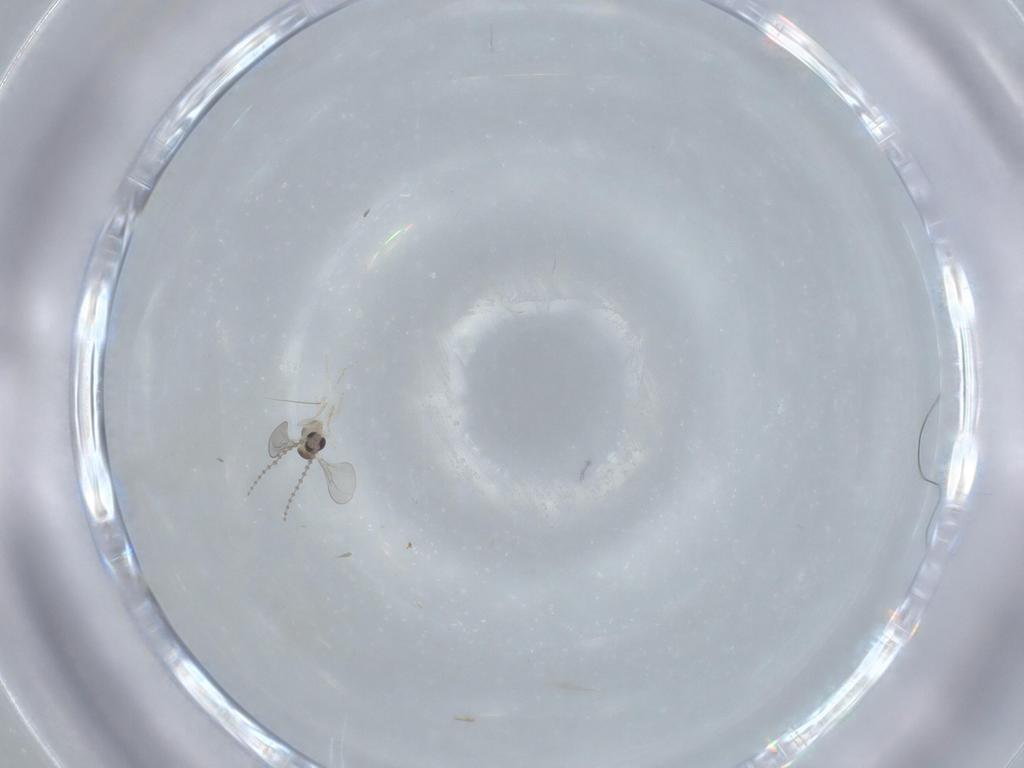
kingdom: Animalia
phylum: Arthropoda
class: Insecta
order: Diptera
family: Cecidomyiidae
